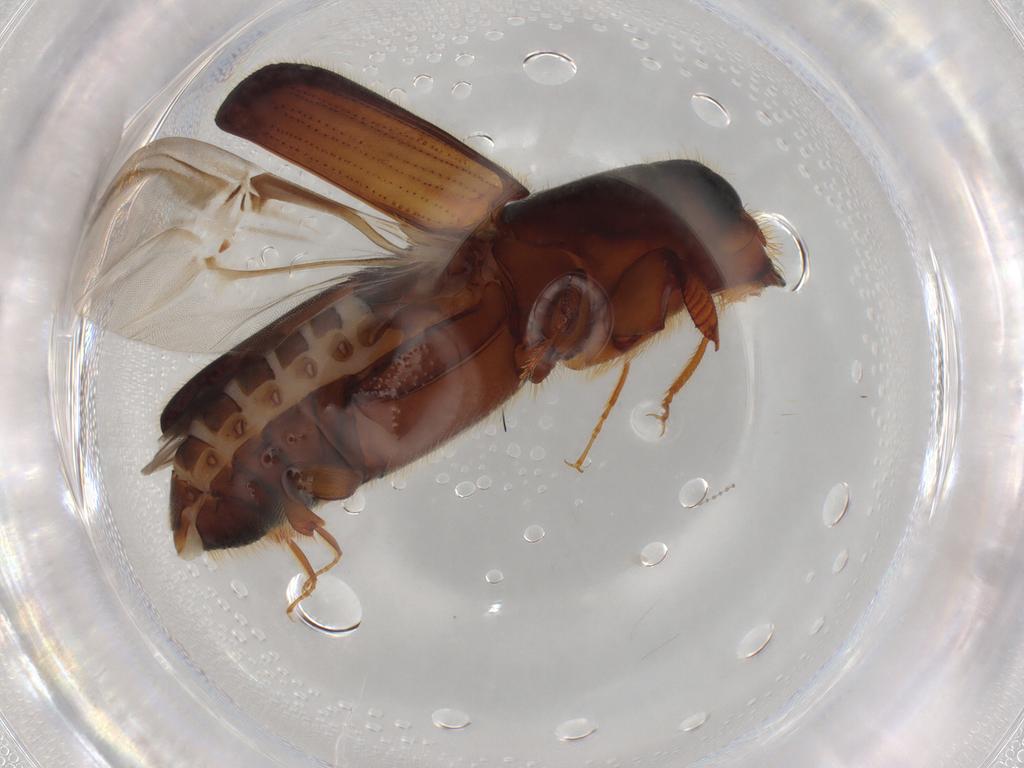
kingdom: Animalia
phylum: Arthropoda
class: Insecta
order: Coleoptera
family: Curculionidae
